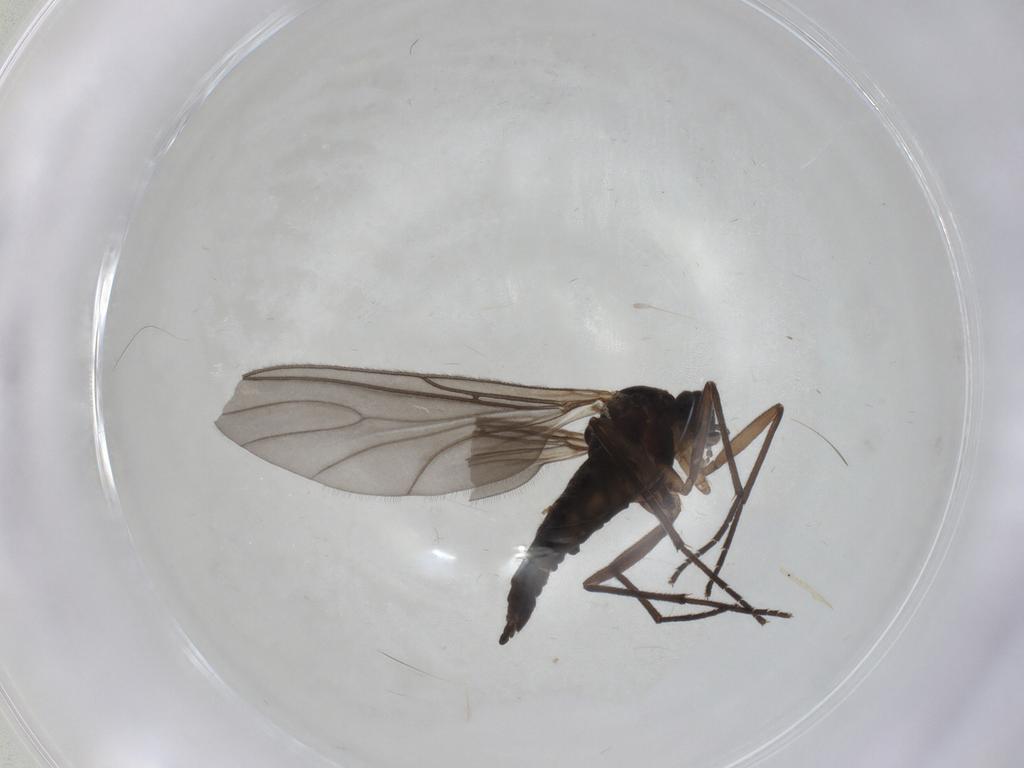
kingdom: Animalia
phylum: Arthropoda
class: Insecta
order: Diptera
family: Sciaridae
